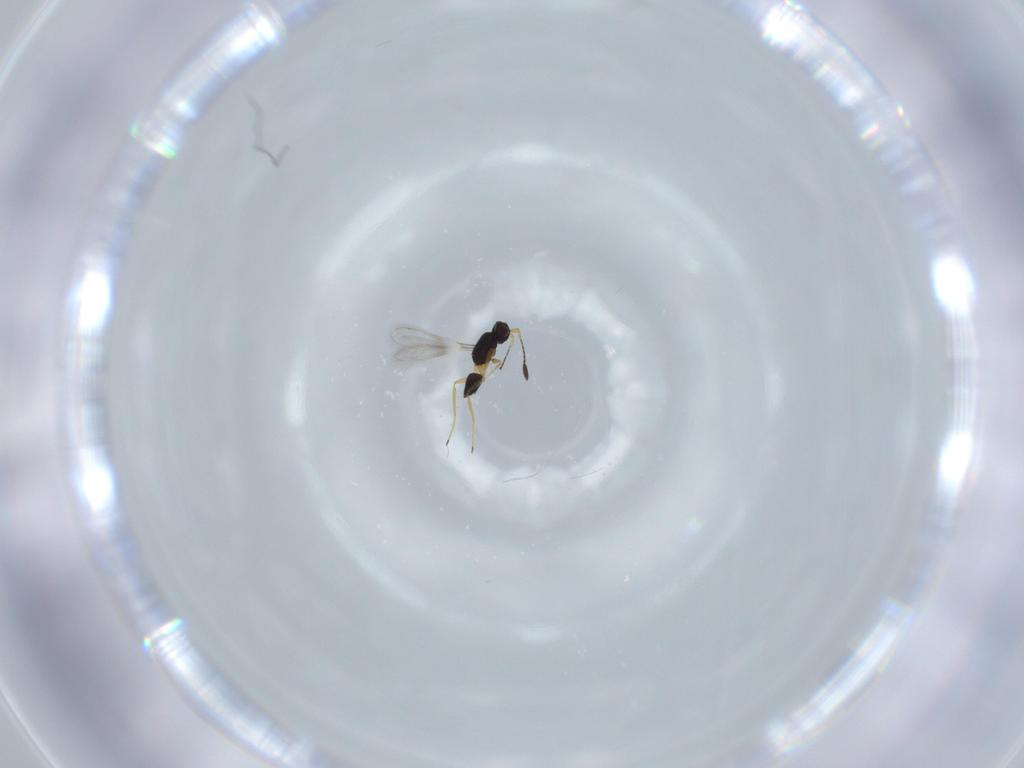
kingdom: Animalia
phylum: Arthropoda
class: Insecta
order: Hymenoptera
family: Mymaridae
